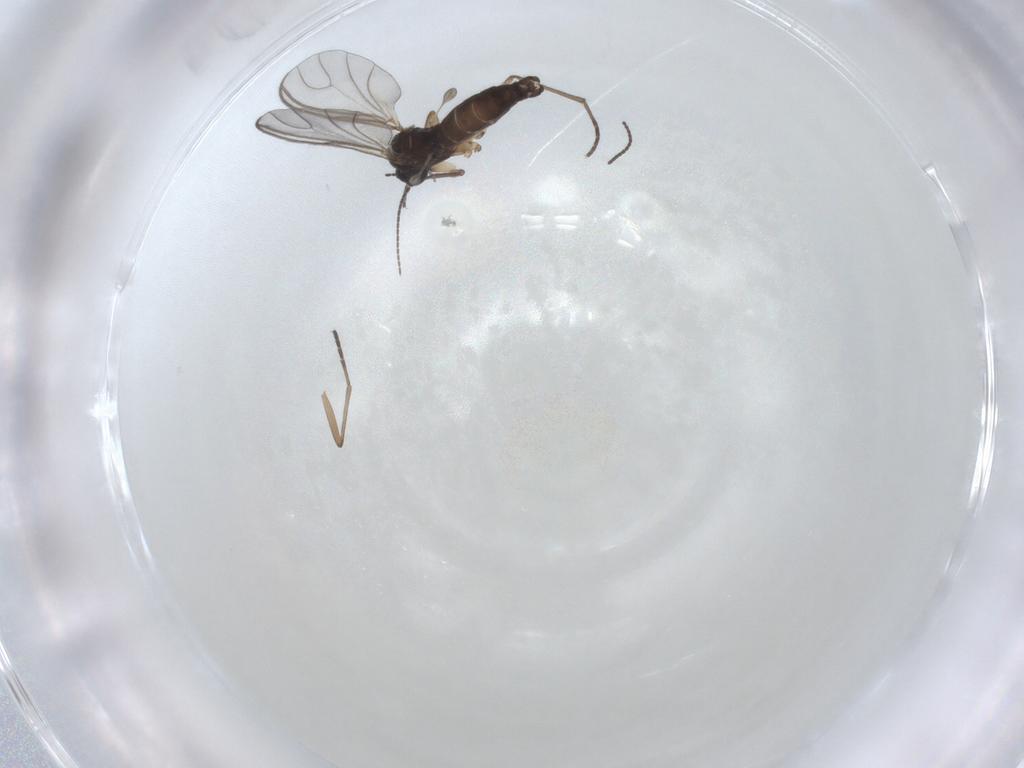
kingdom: Animalia
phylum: Arthropoda
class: Insecta
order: Diptera
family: Sciaridae
